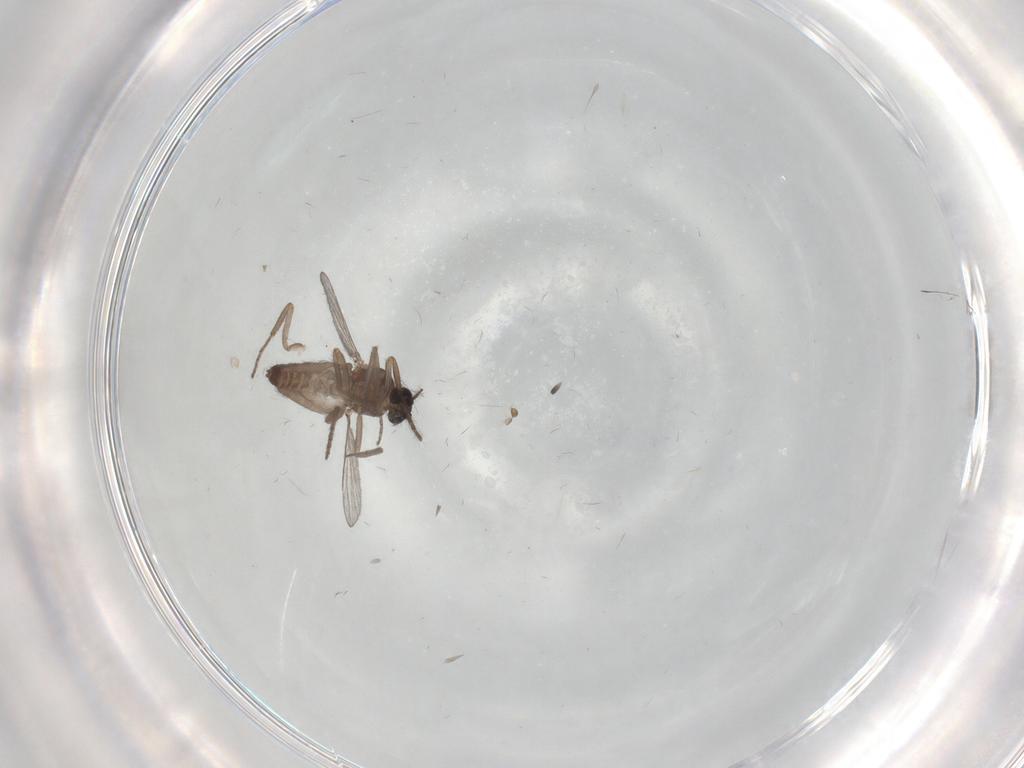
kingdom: Animalia
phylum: Arthropoda
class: Insecta
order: Diptera
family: Ceratopogonidae
